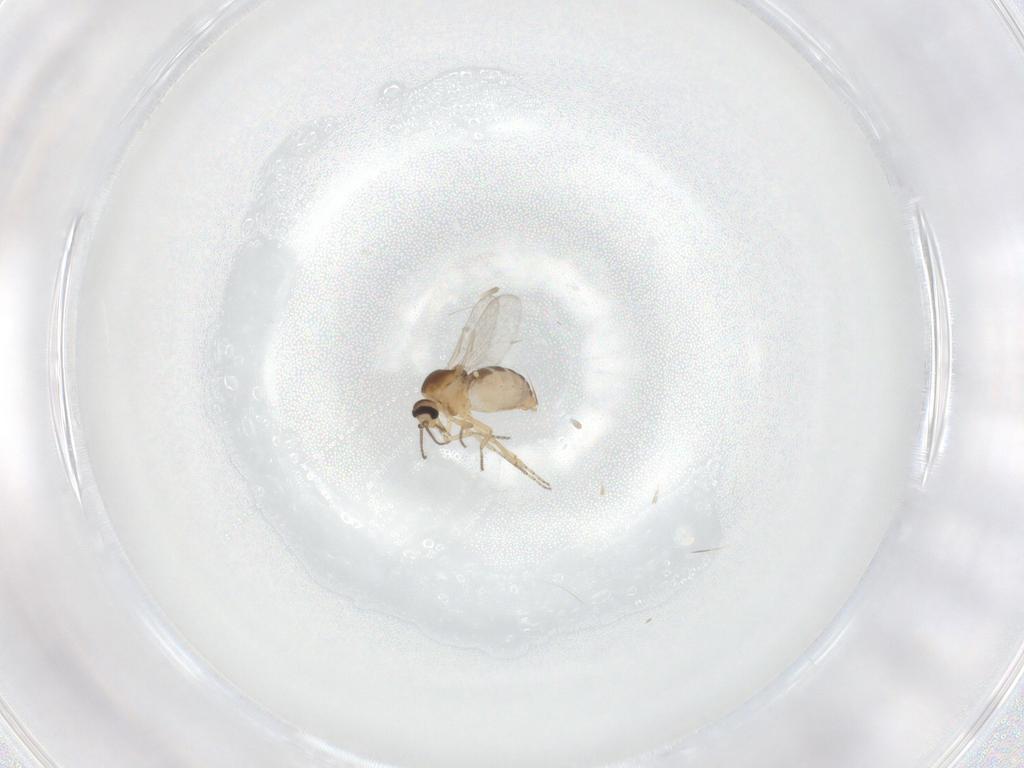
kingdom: Animalia
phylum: Arthropoda
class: Insecta
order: Diptera
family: Ceratopogonidae
